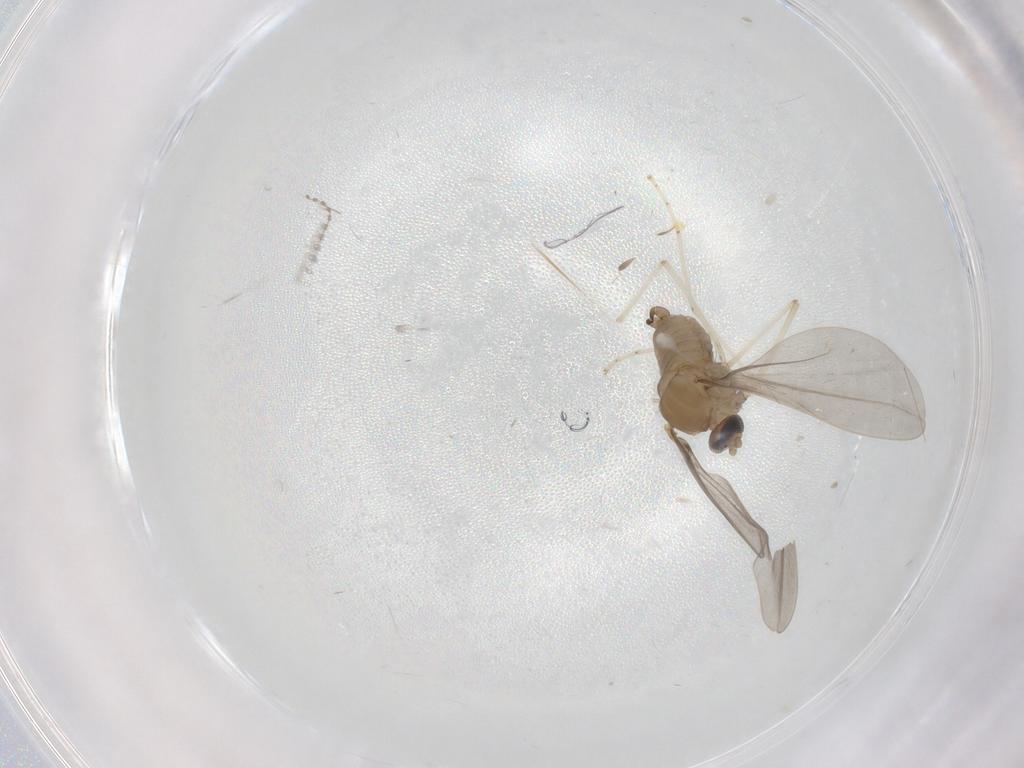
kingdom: Animalia
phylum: Arthropoda
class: Insecta
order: Diptera
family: Cecidomyiidae
